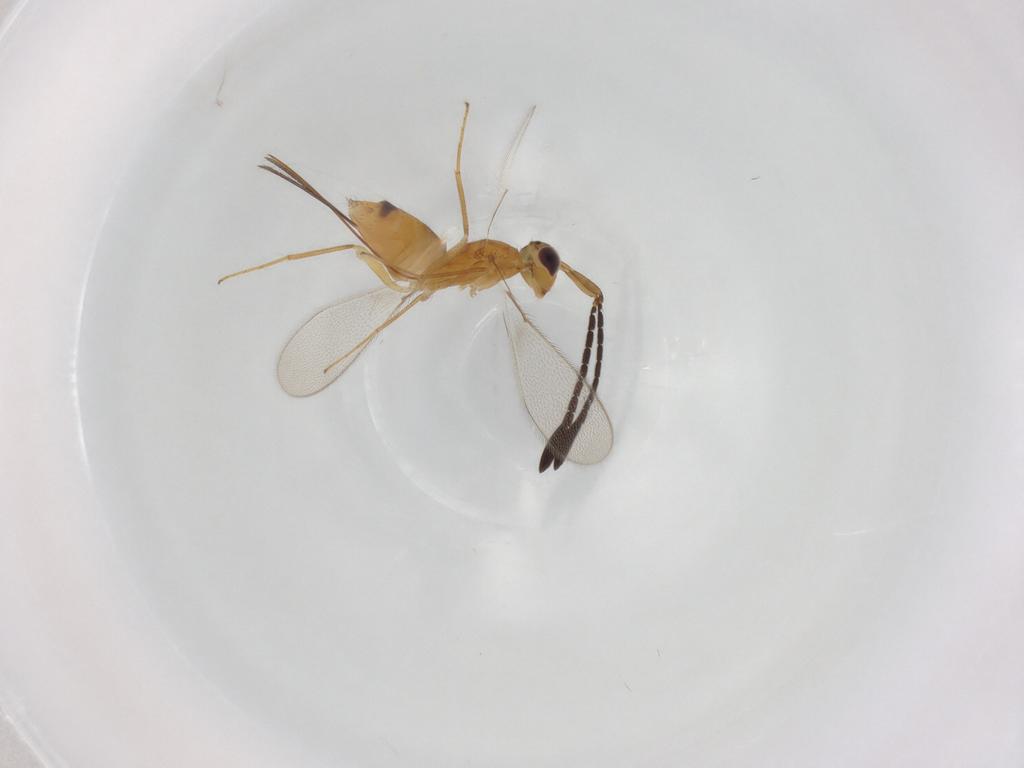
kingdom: Animalia
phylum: Arthropoda
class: Insecta
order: Hymenoptera
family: Mymaridae
